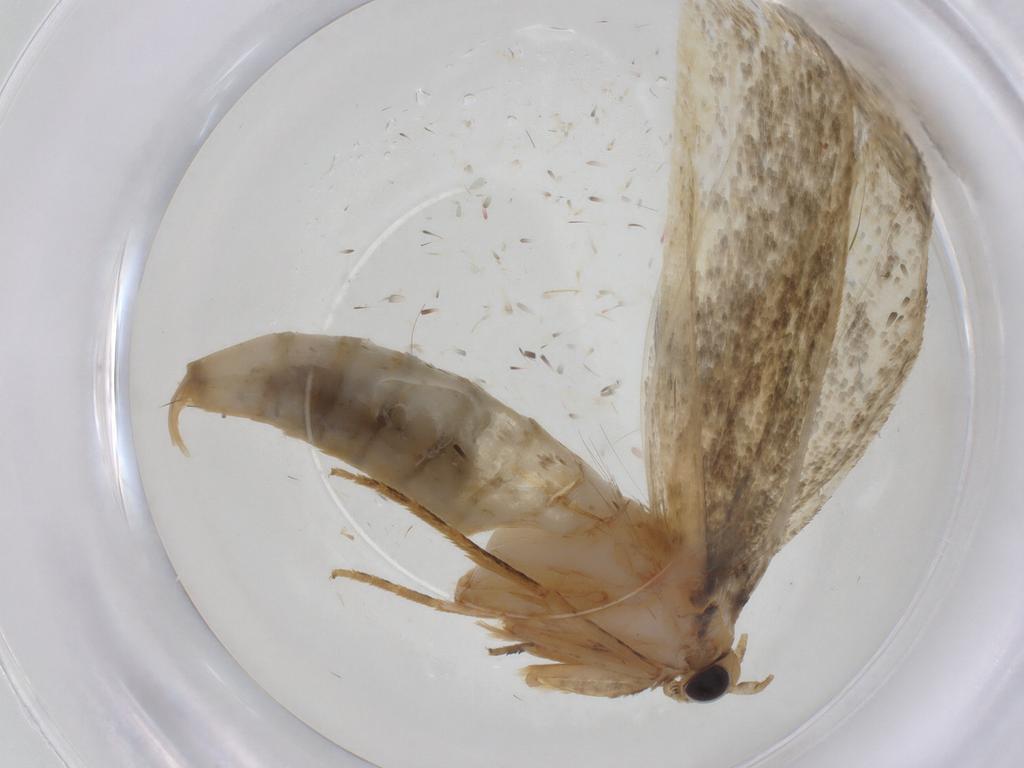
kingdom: Animalia
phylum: Arthropoda
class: Insecta
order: Lepidoptera
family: Tineidae
